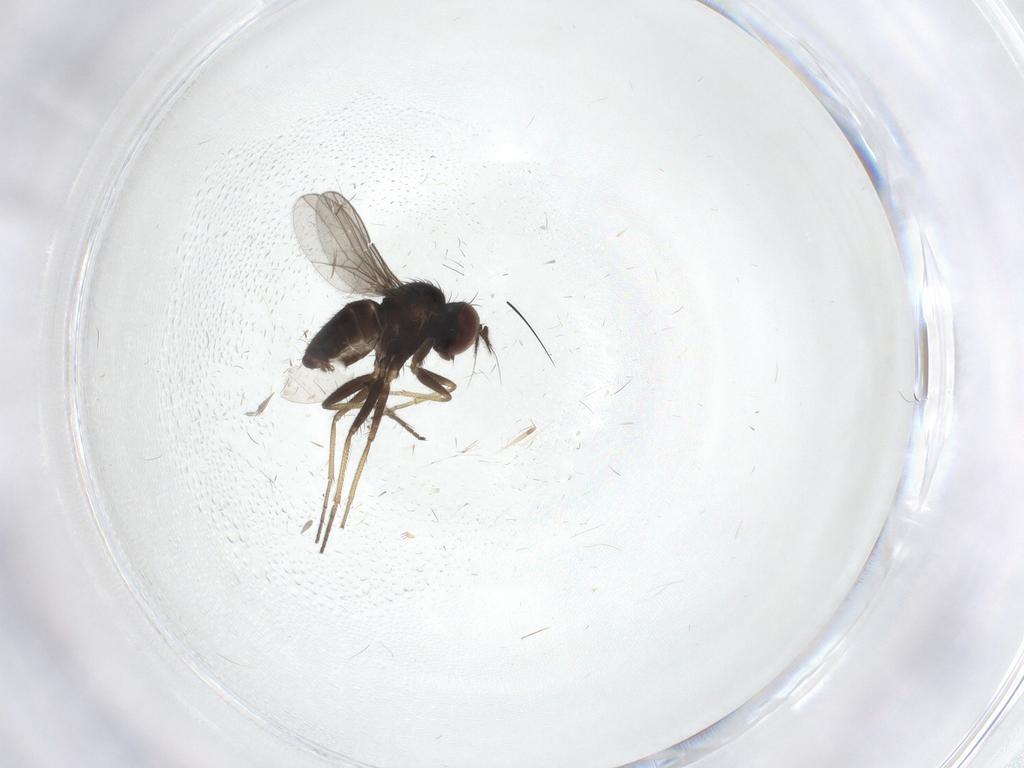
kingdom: Animalia
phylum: Arthropoda
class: Insecta
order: Diptera
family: Dolichopodidae
